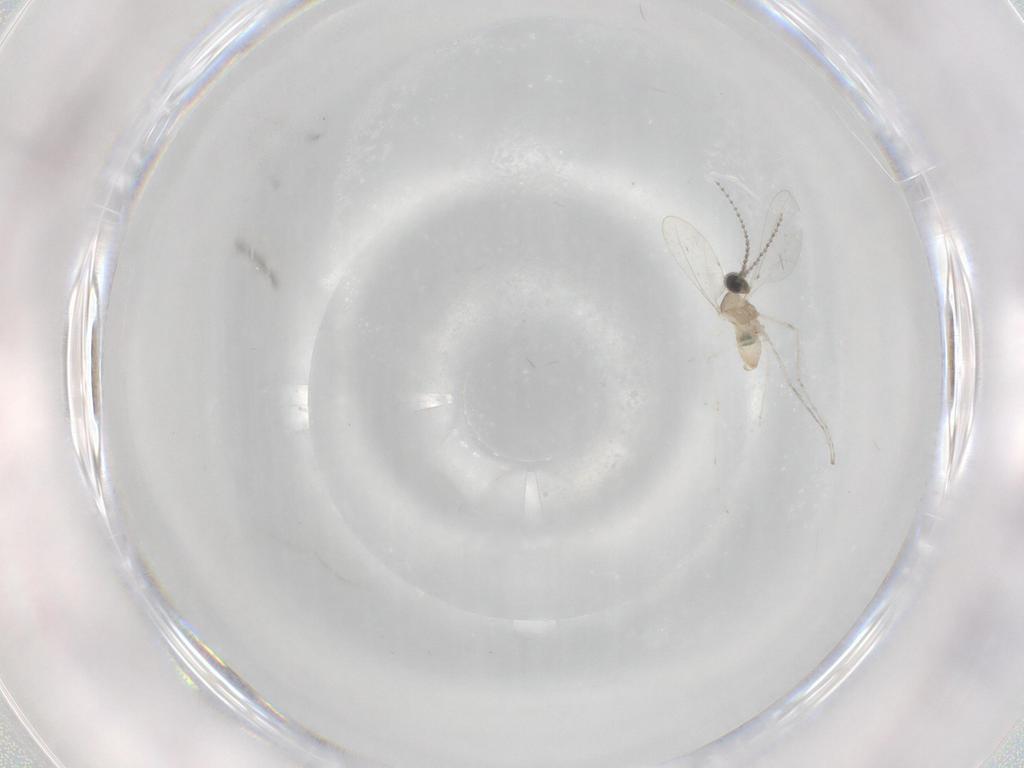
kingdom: Animalia
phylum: Arthropoda
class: Insecta
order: Diptera
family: Cecidomyiidae
